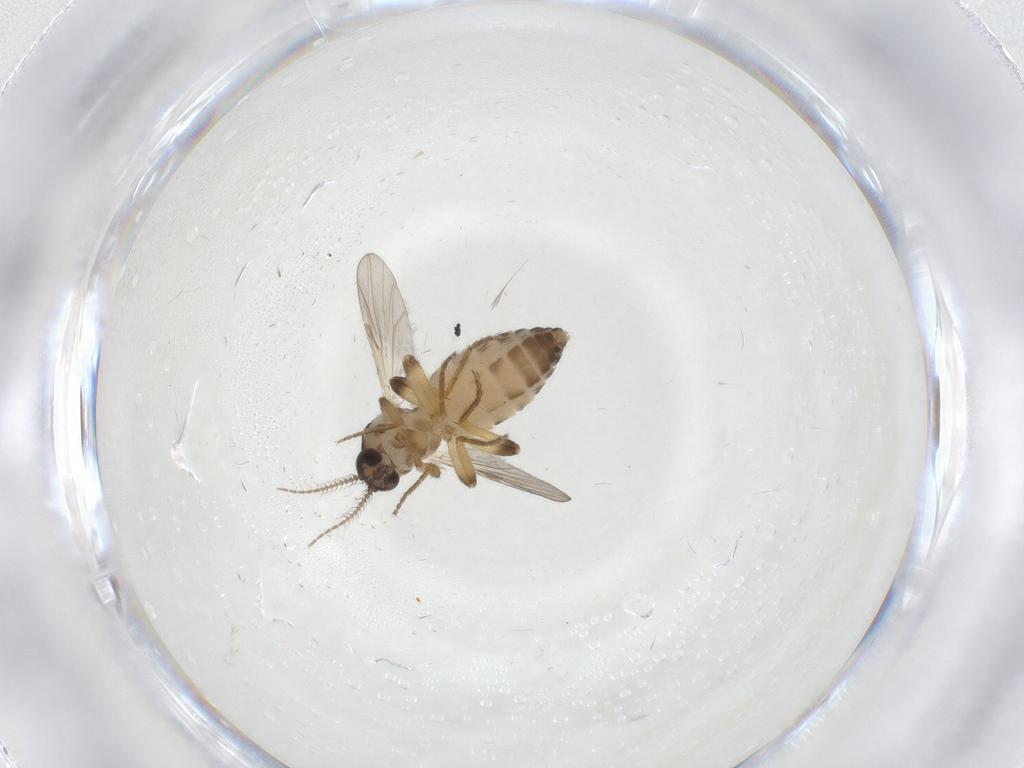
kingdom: Animalia
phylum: Arthropoda
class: Insecta
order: Diptera
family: Ceratopogonidae
